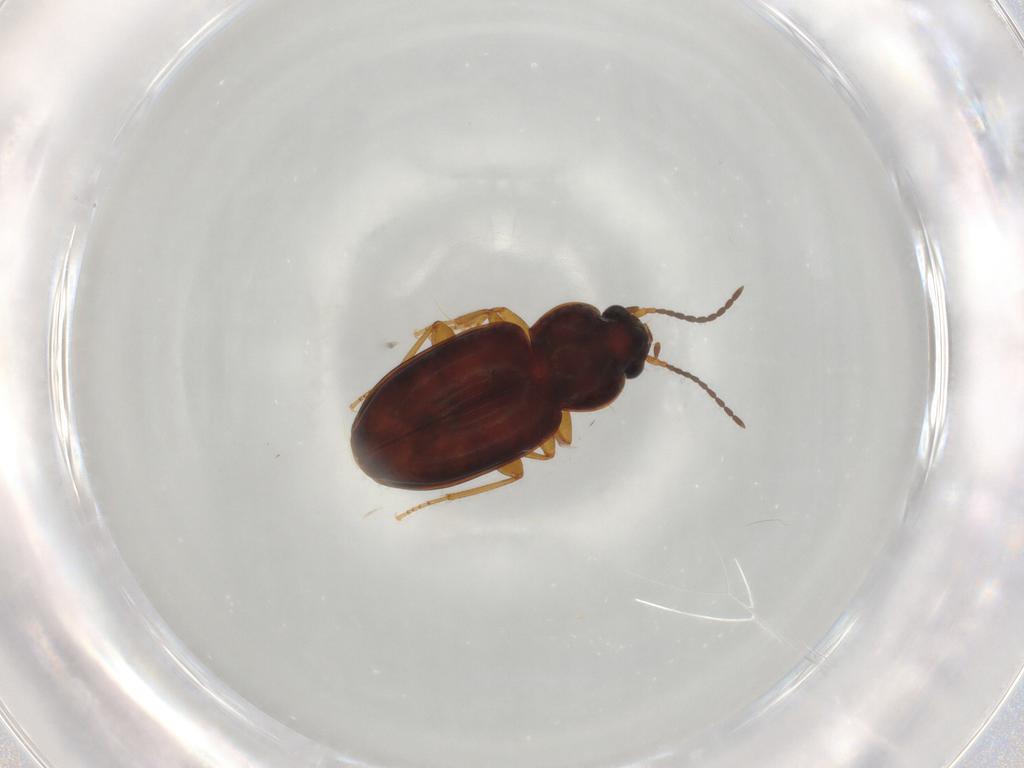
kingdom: Animalia
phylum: Arthropoda
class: Insecta
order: Coleoptera
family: Carabidae
